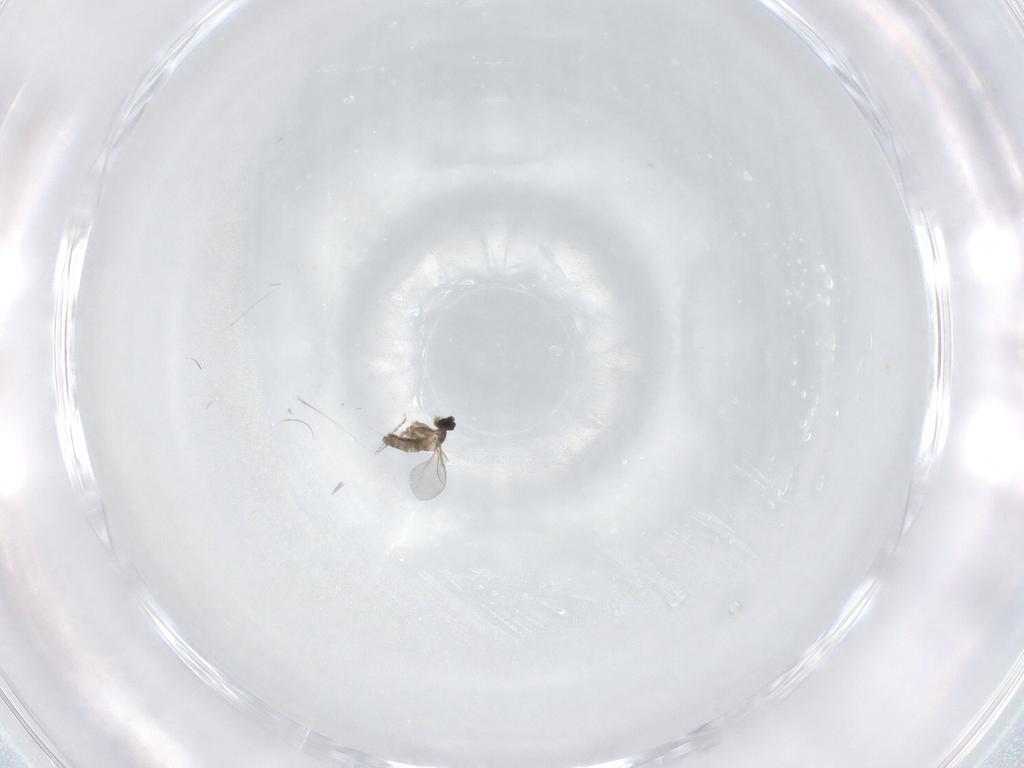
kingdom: Animalia
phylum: Arthropoda
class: Insecta
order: Diptera
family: Cecidomyiidae
